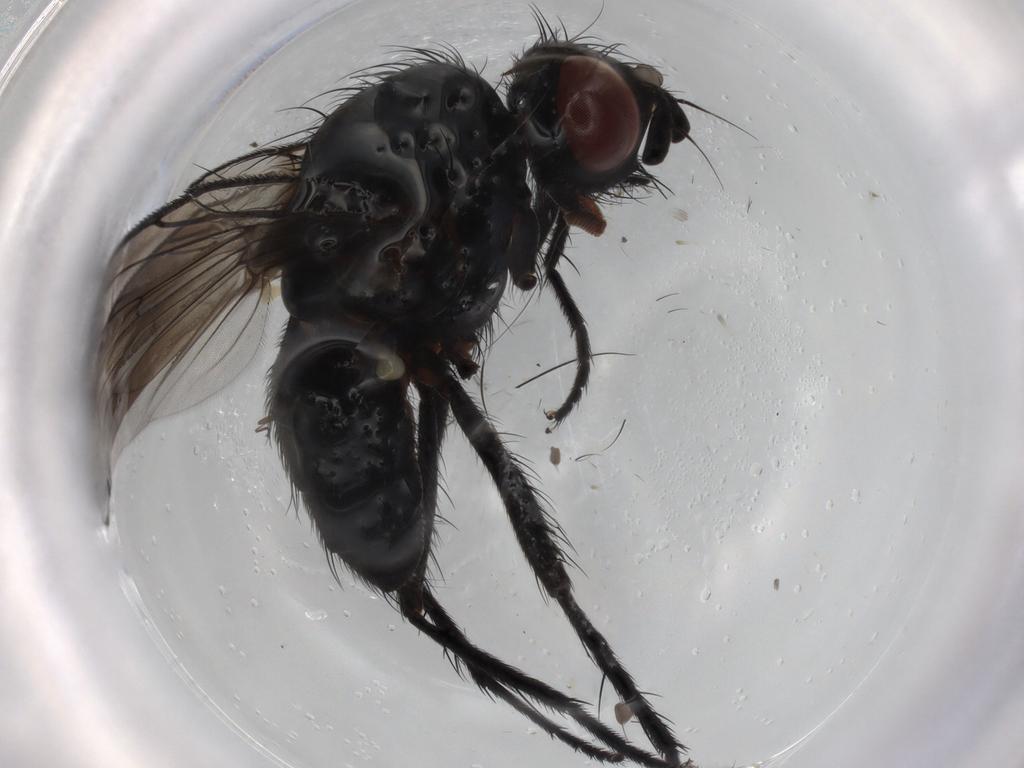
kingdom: Animalia
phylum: Arthropoda
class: Insecta
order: Diptera
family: Anthomyiidae
